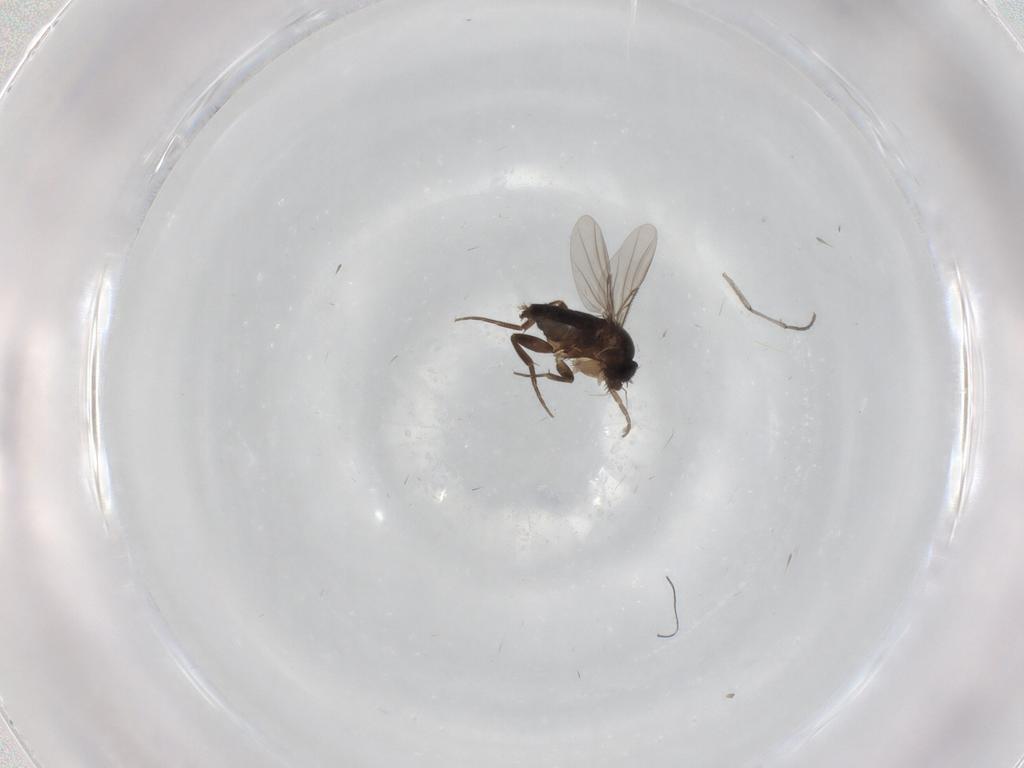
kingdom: Animalia
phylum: Arthropoda
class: Insecta
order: Diptera
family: Phoridae
